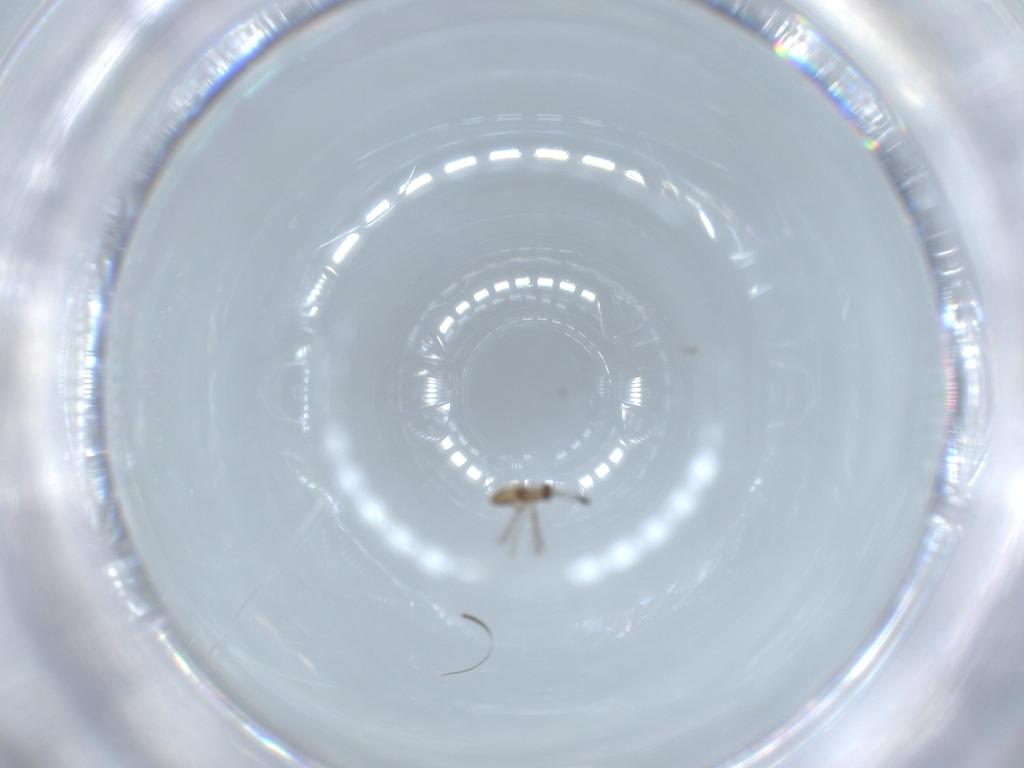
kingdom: Animalia
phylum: Arthropoda
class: Insecta
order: Hymenoptera
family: Mymaridae
